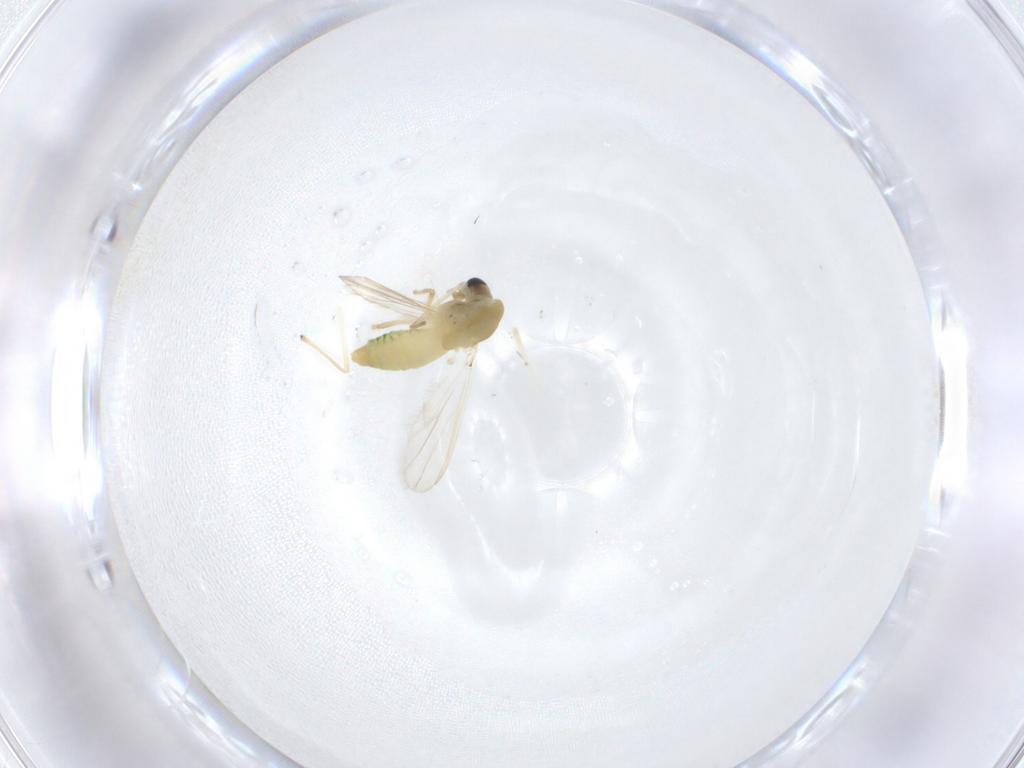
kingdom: Animalia
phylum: Arthropoda
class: Insecta
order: Diptera
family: Chironomidae
